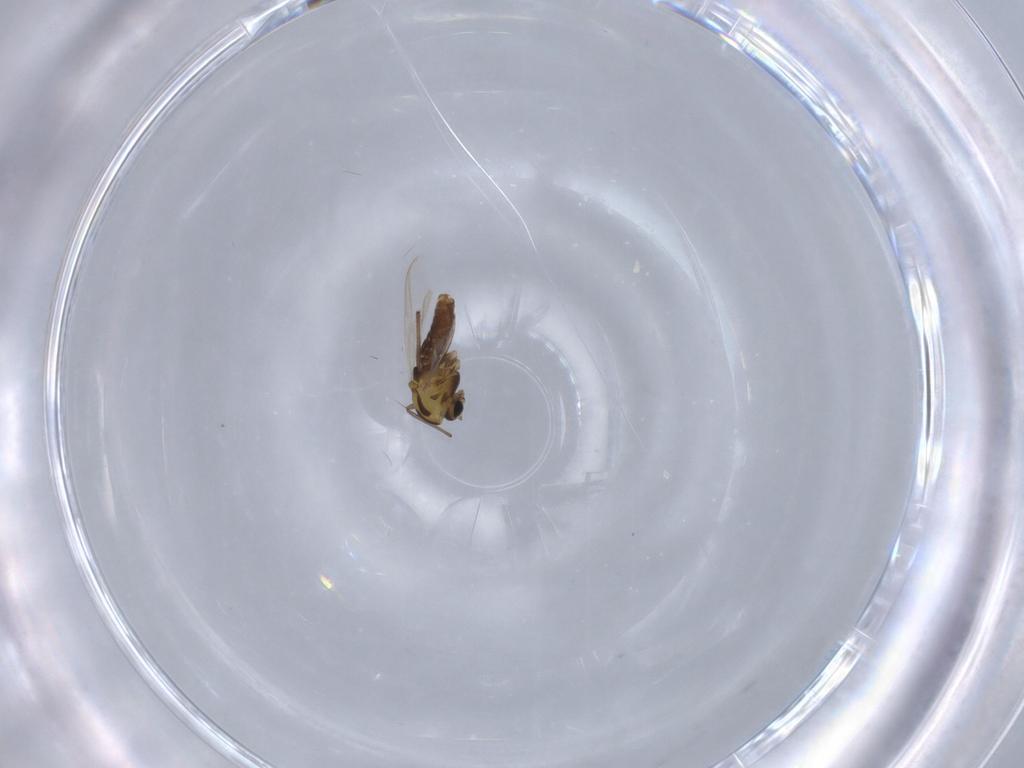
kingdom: Animalia
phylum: Arthropoda
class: Insecta
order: Diptera
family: Chironomidae
